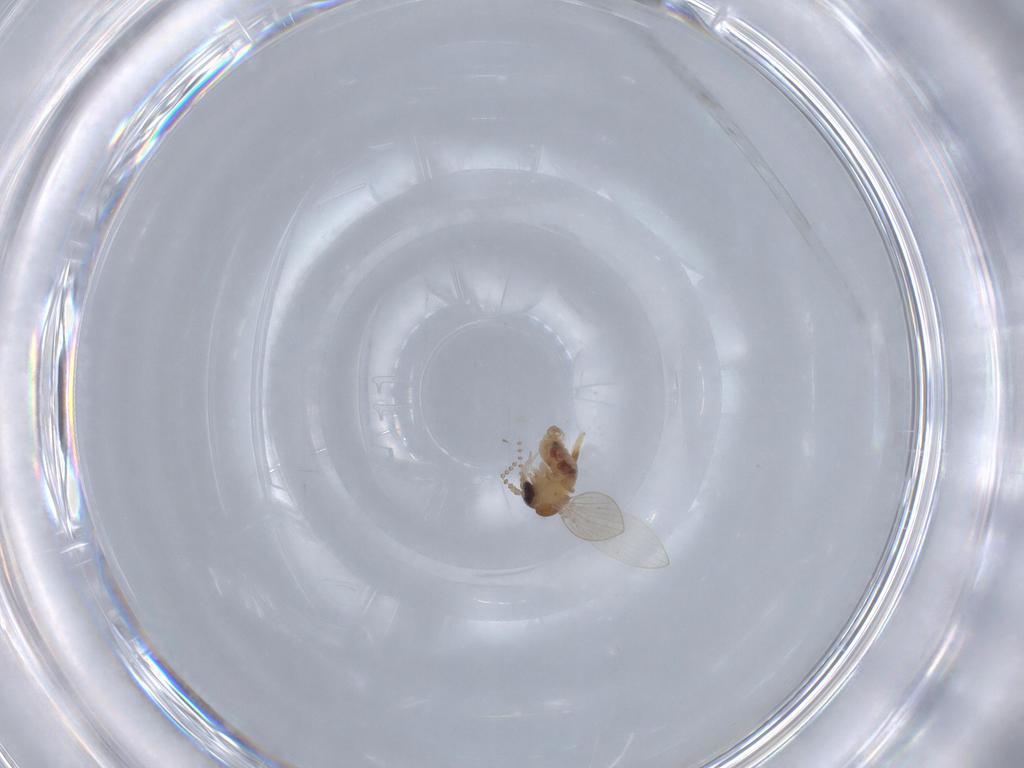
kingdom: Animalia
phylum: Arthropoda
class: Insecta
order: Diptera
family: Psychodidae
